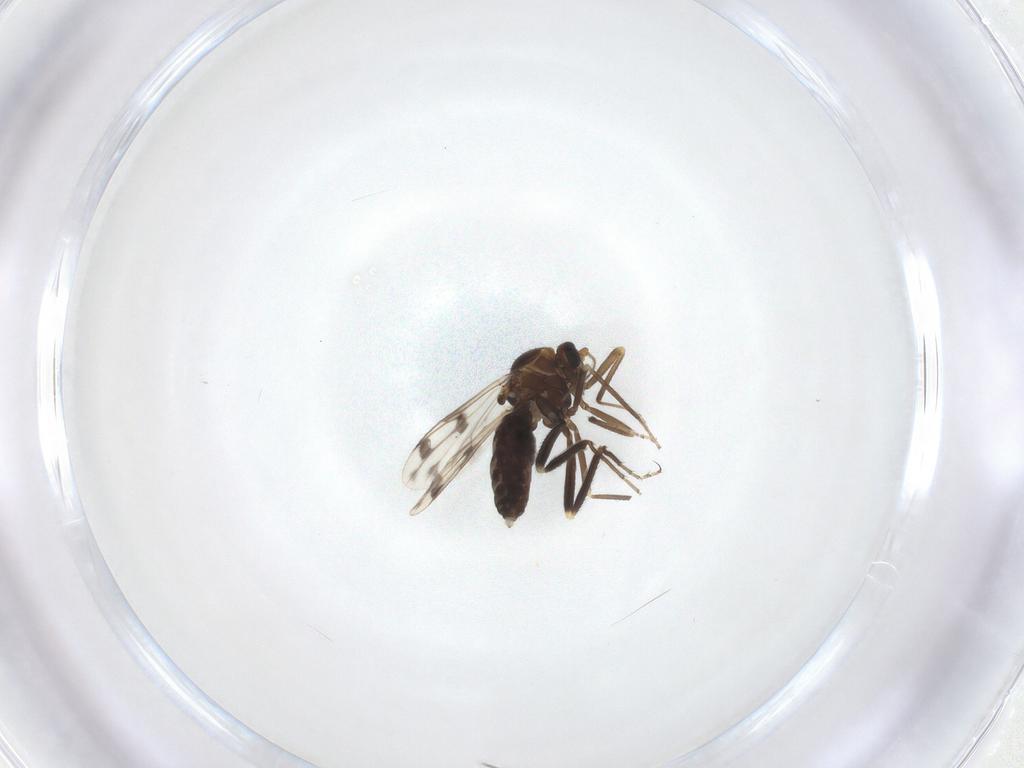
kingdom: Animalia
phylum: Arthropoda
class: Insecta
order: Diptera
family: Ceratopogonidae
